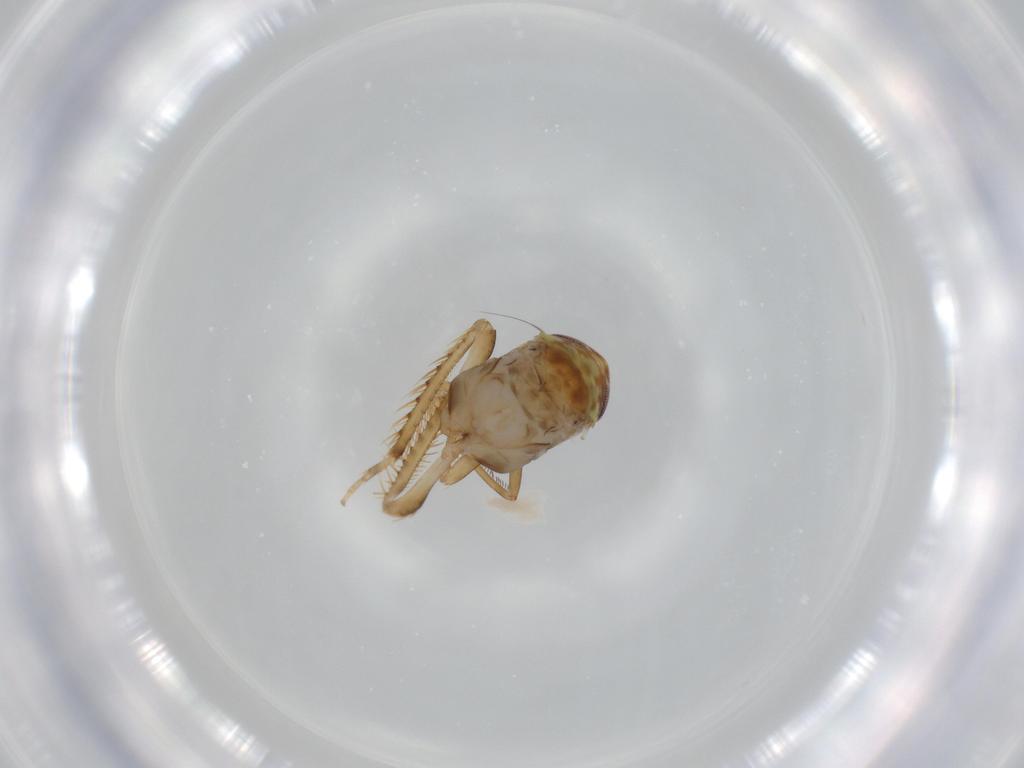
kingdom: Animalia
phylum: Arthropoda
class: Insecta
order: Hemiptera
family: Cicadellidae
